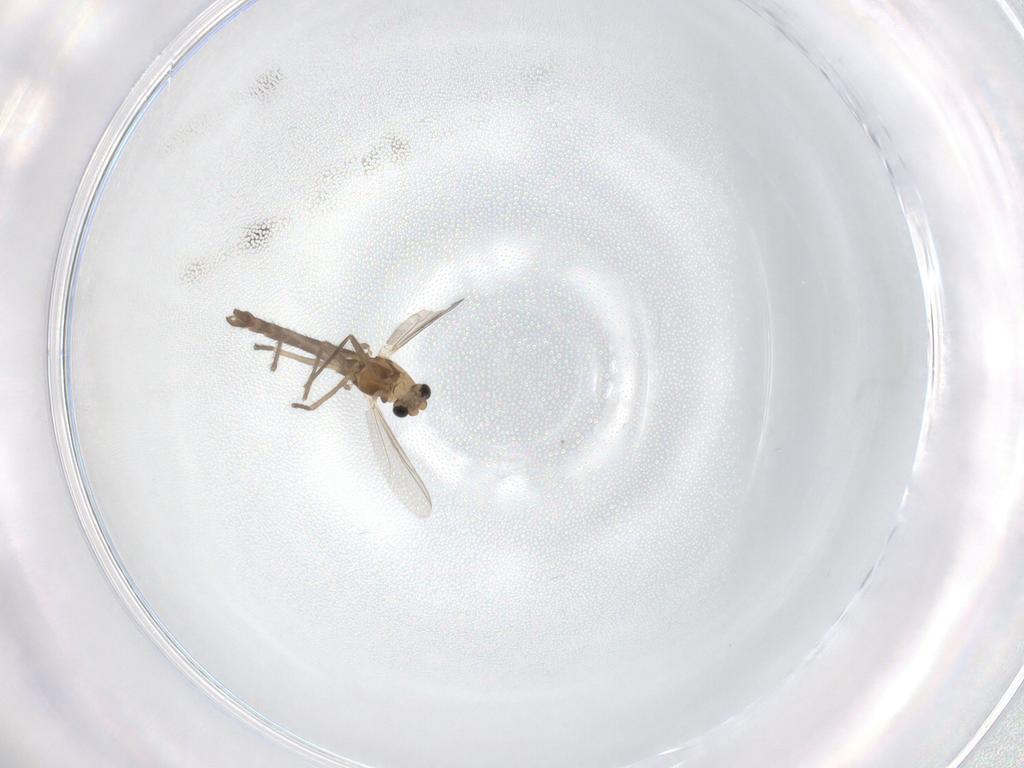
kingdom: Animalia
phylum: Arthropoda
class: Insecta
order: Diptera
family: Chironomidae
